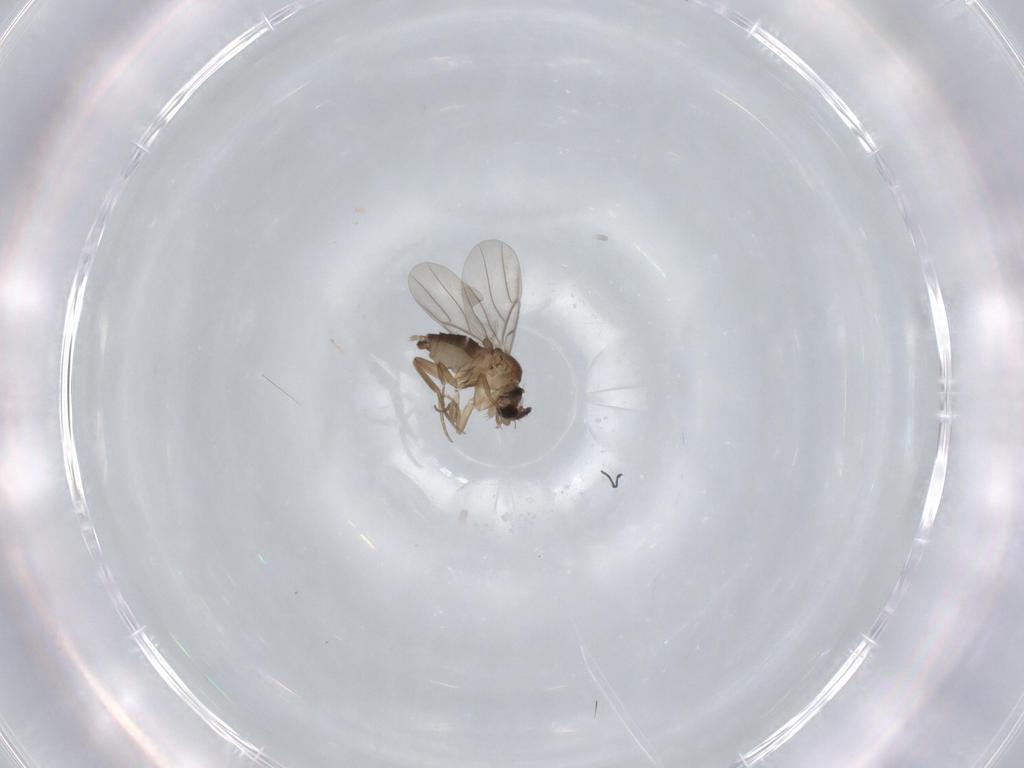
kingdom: Animalia
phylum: Arthropoda
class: Insecta
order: Diptera
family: Phoridae
